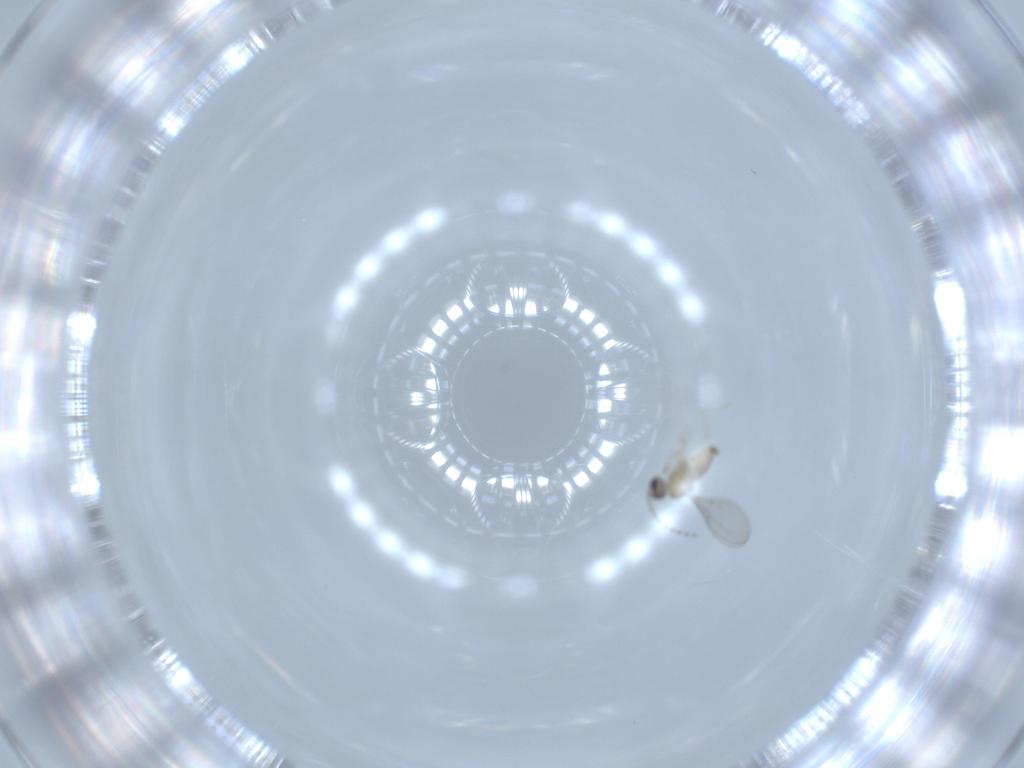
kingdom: Animalia
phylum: Arthropoda
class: Insecta
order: Diptera
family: Cecidomyiidae
